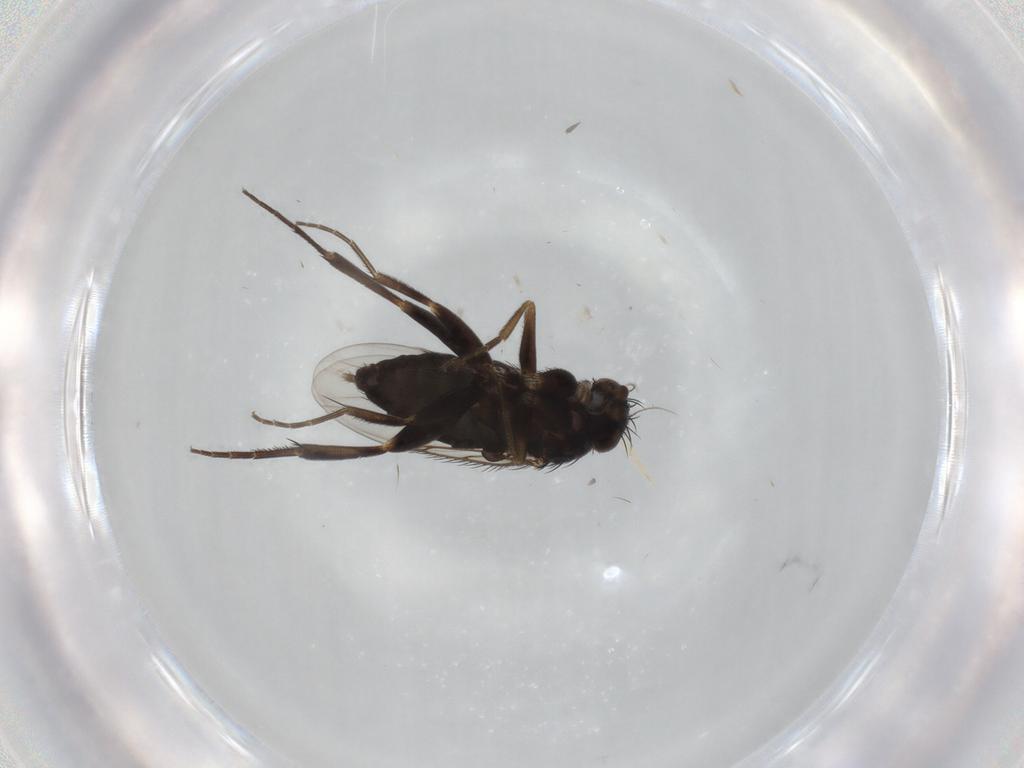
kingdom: Animalia
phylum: Arthropoda
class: Insecta
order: Diptera
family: Phoridae
